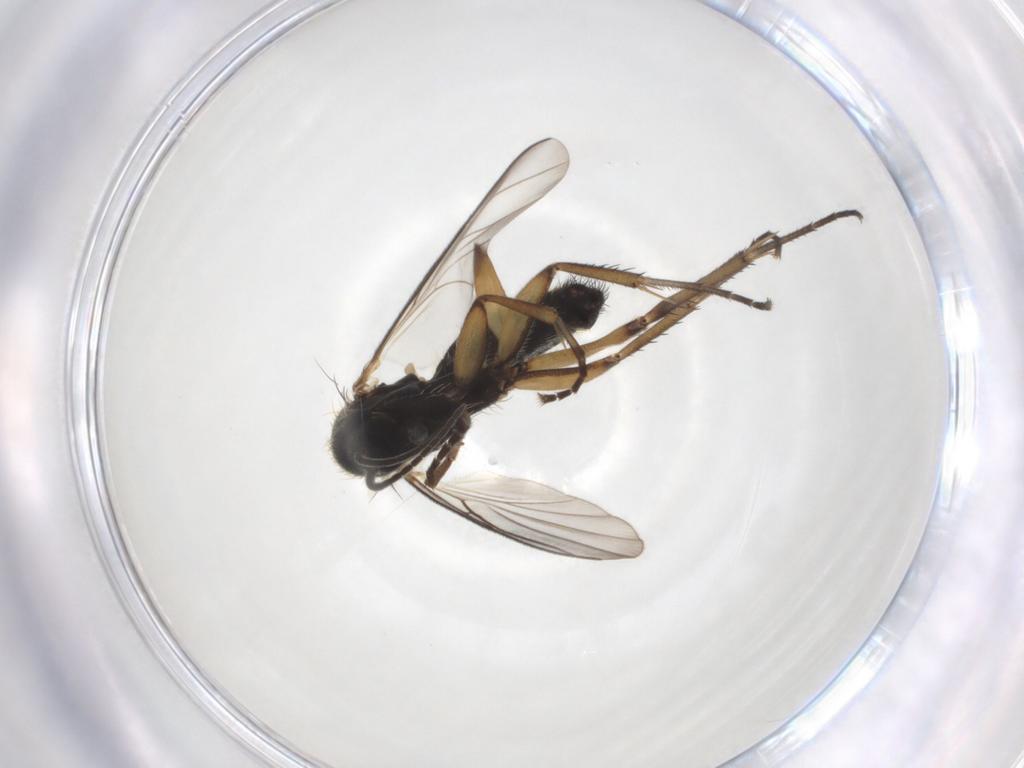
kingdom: Animalia
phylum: Arthropoda
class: Insecta
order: Diptera
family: Mycetophilidae
